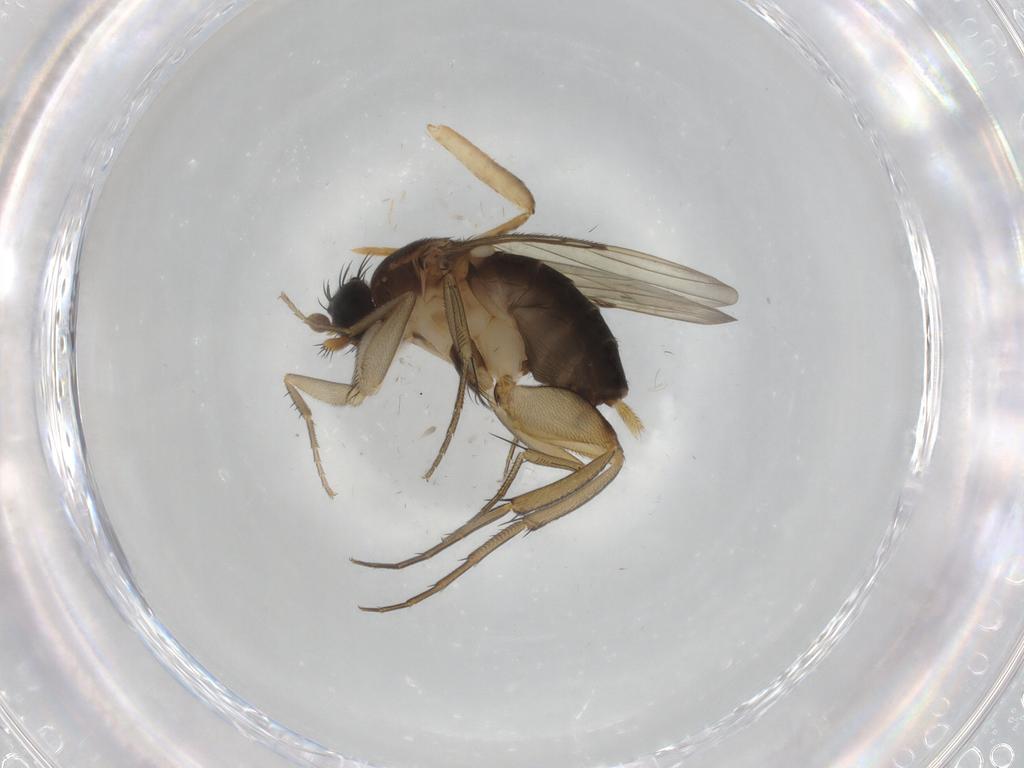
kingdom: Animalia
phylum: Arthropoda
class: Insecta
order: Diptera
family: Phoridae
